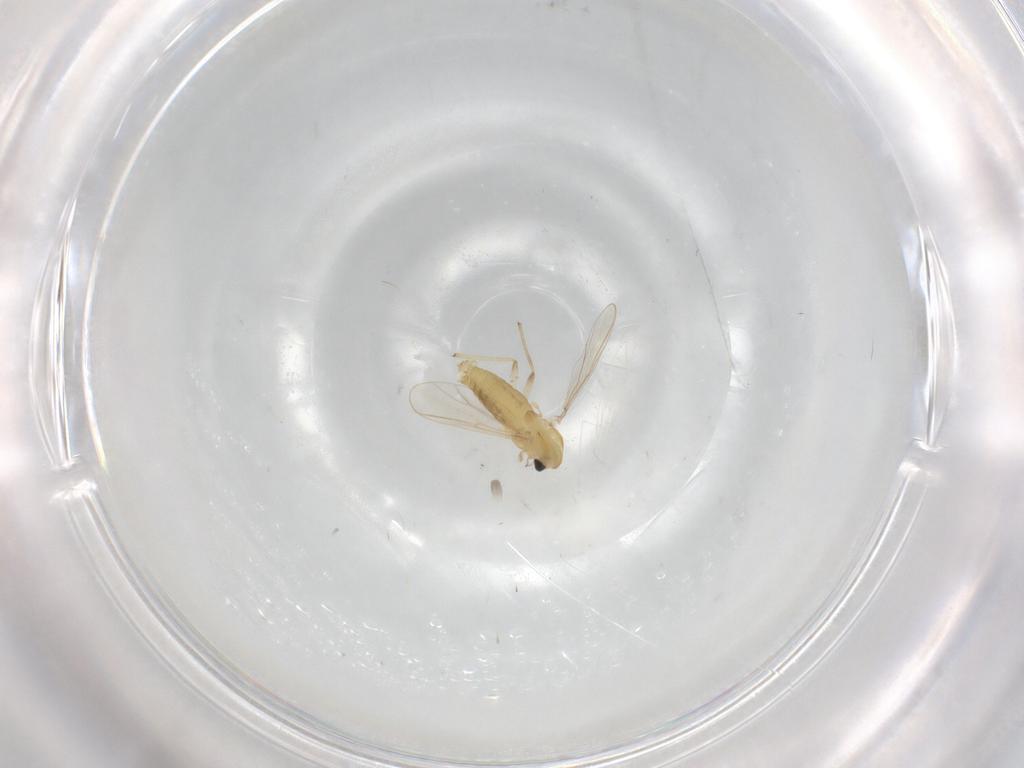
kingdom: Animalia
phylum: Arthropoda
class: Insecta
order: Diptera
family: Chironomidae
